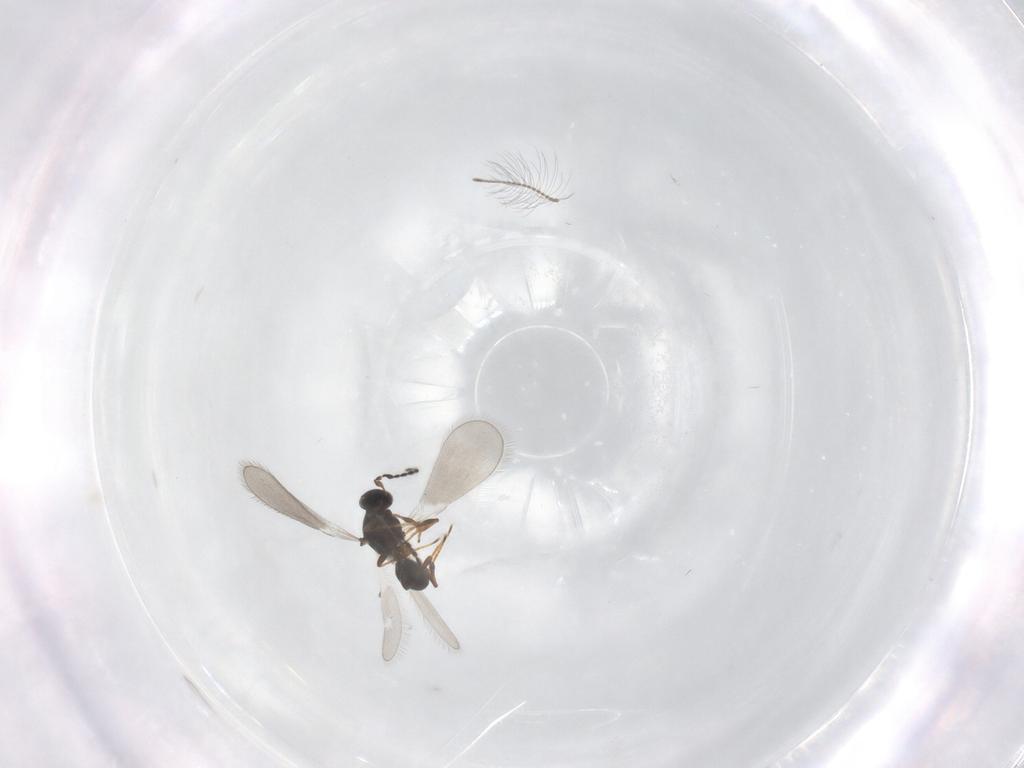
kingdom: Animalia
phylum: Arthropoda
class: Insecta
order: Hymenoptera
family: Platygastridae
